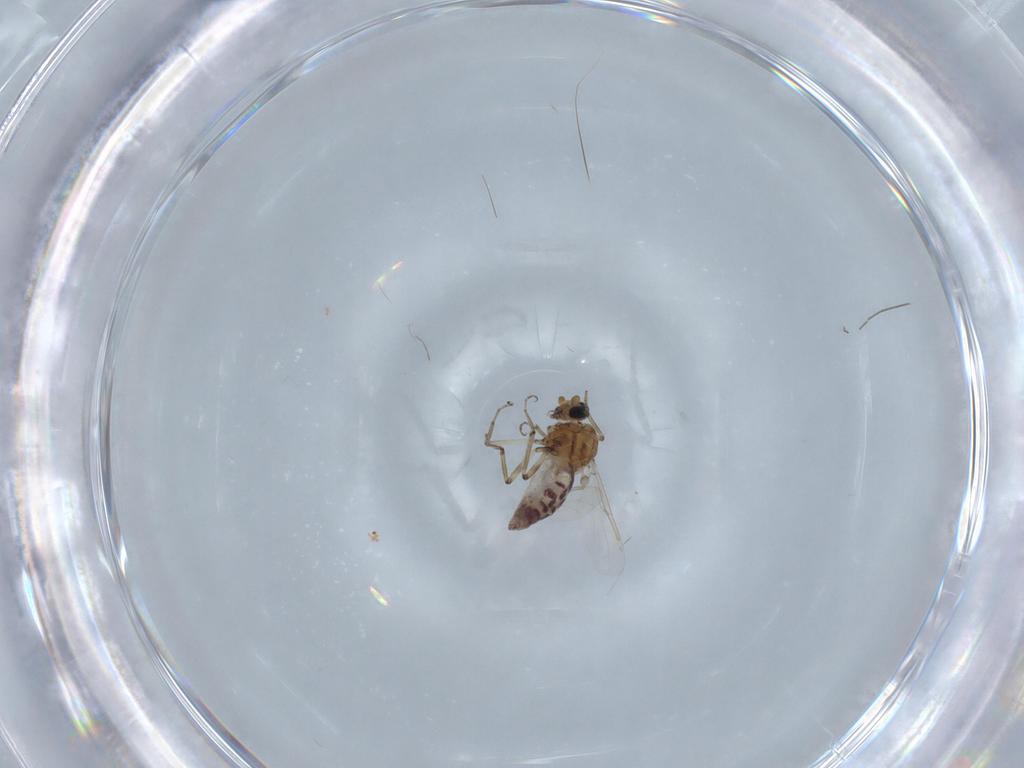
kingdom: Animalia
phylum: Arthropoda
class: Insecta
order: Diptera
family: Ceratopogonidae
